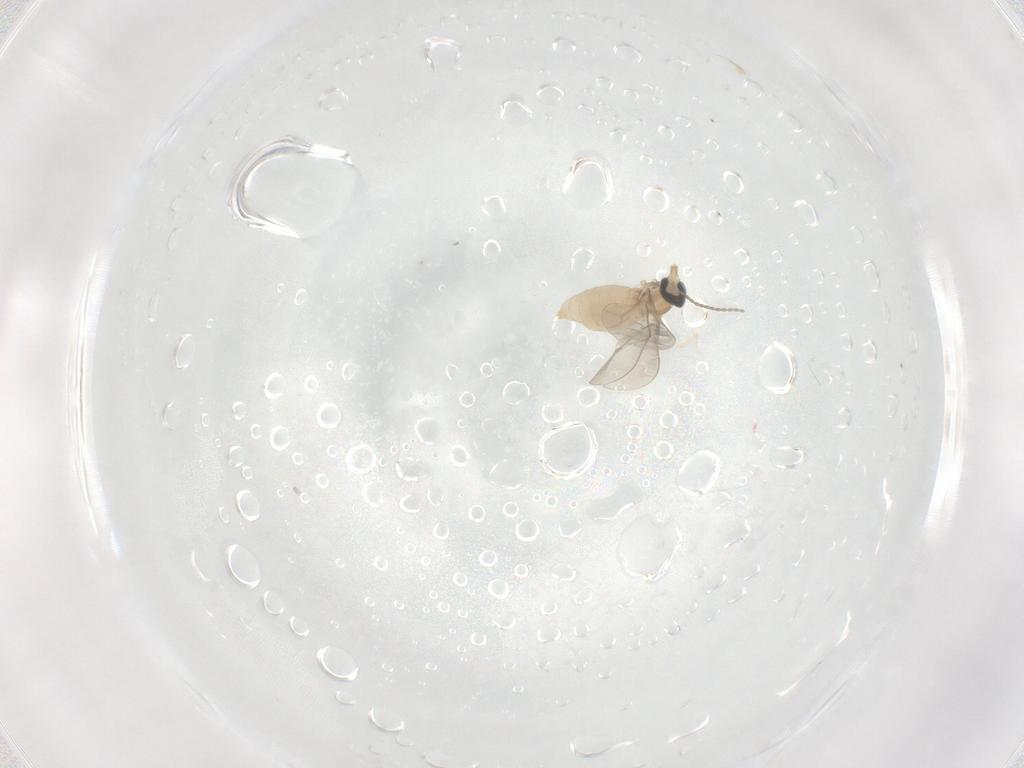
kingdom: Animalia
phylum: Arthropoda
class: Insecta
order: Diptera
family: Cecidomyiidae
